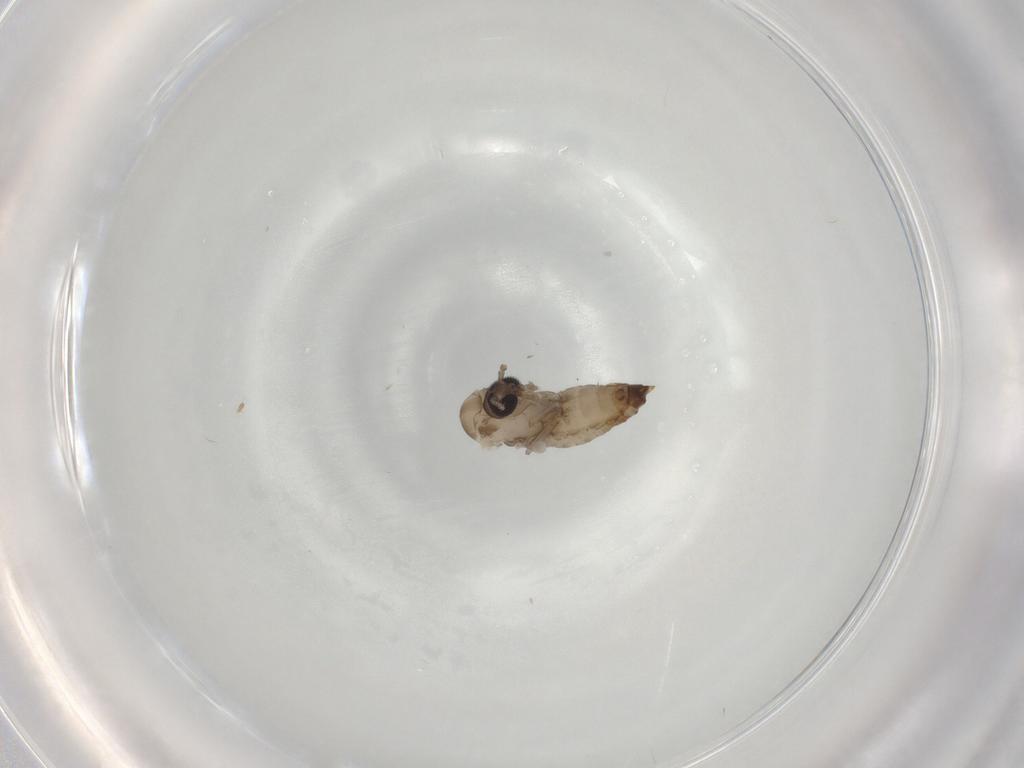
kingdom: Animalia
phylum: Arthropoda
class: Insecta
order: Diptera
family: Psychodidae
